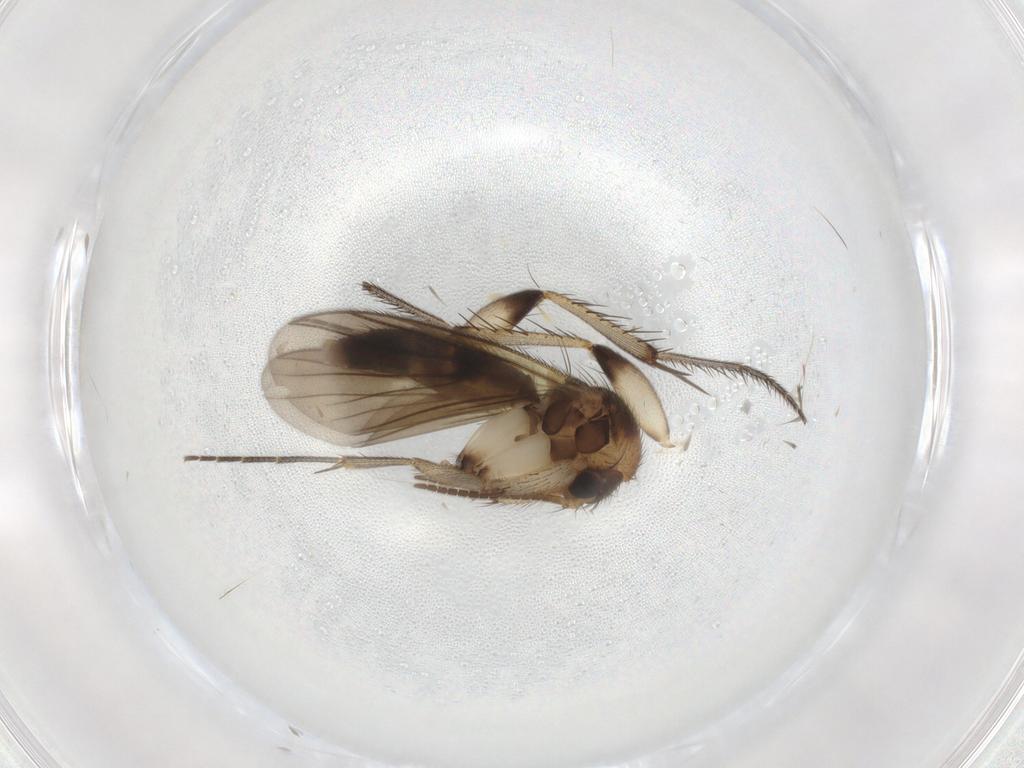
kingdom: Animalia
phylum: Arthropoda
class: Insecta
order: Diptera
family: Mycetophilidae
